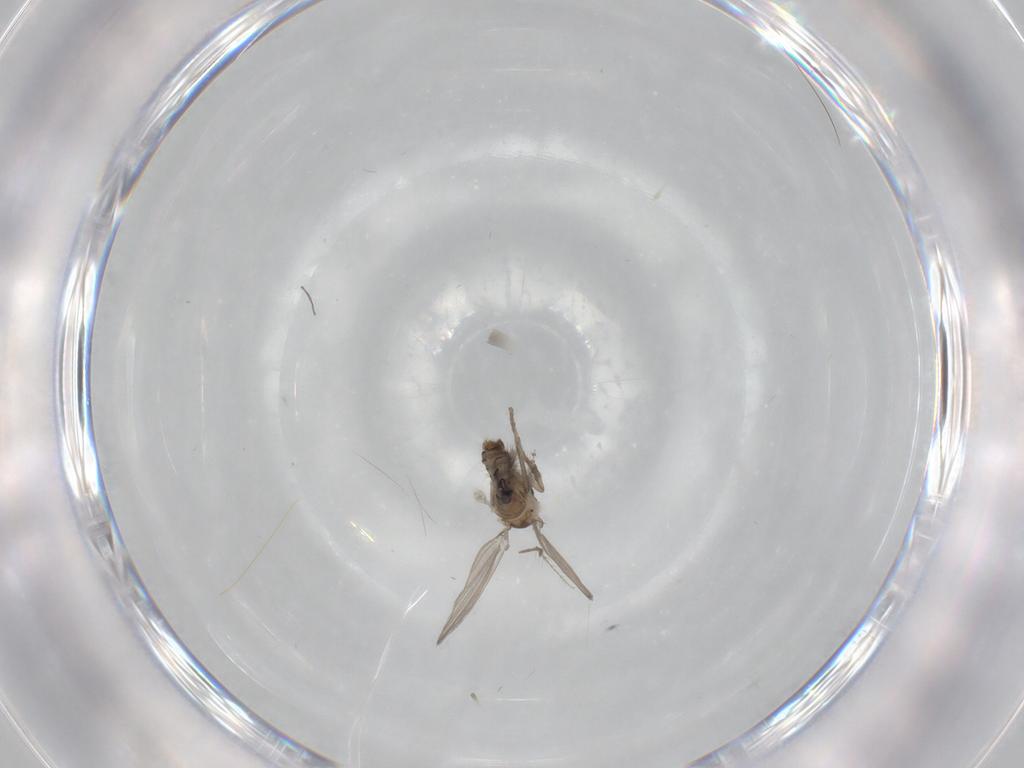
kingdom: Animalia
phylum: Arthropoda
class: Insecta
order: Diptera
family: Psychodidae
